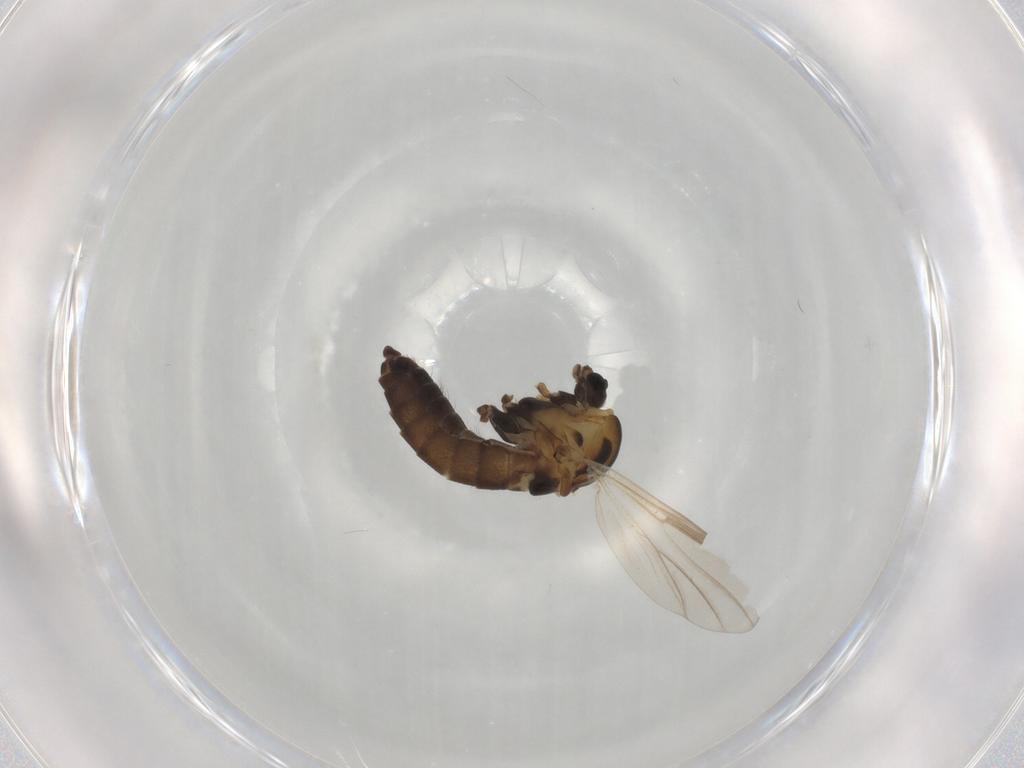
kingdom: Animalia
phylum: Arthropoda
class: Insecta
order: Diptera
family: Chironomidae
